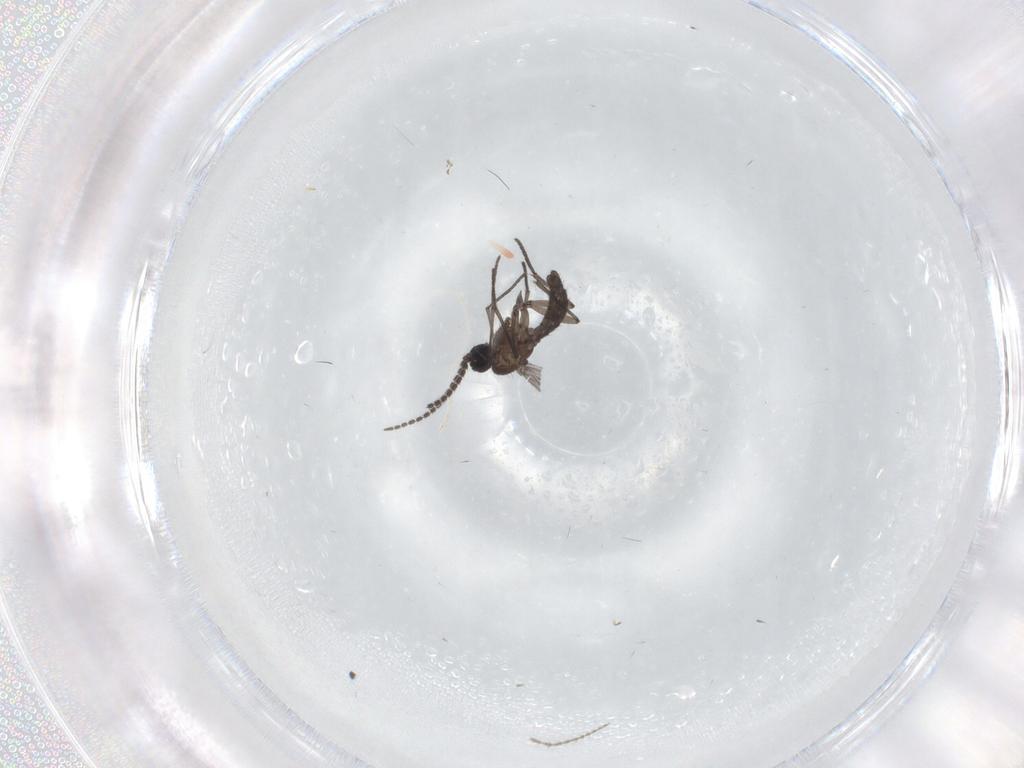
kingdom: Animalia
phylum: Arthropoda
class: Insecta
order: Diptera
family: Sciaridae
